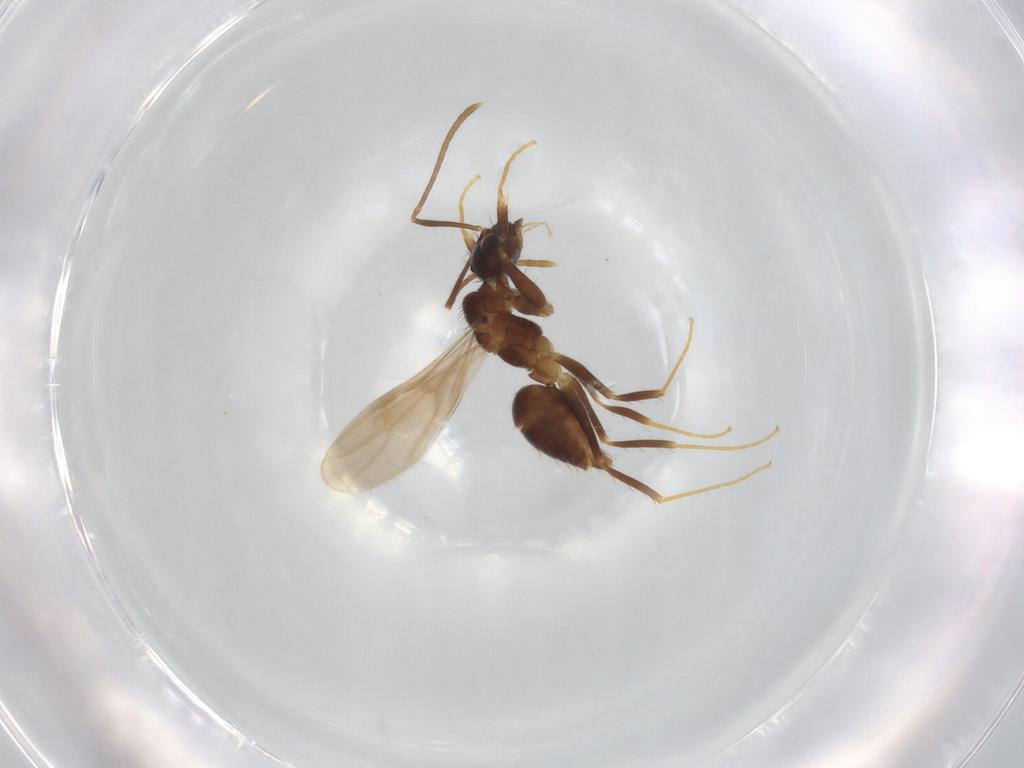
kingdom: Animalia
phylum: Arthropoda
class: Insecta
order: Hymenoptera
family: Formicidae
